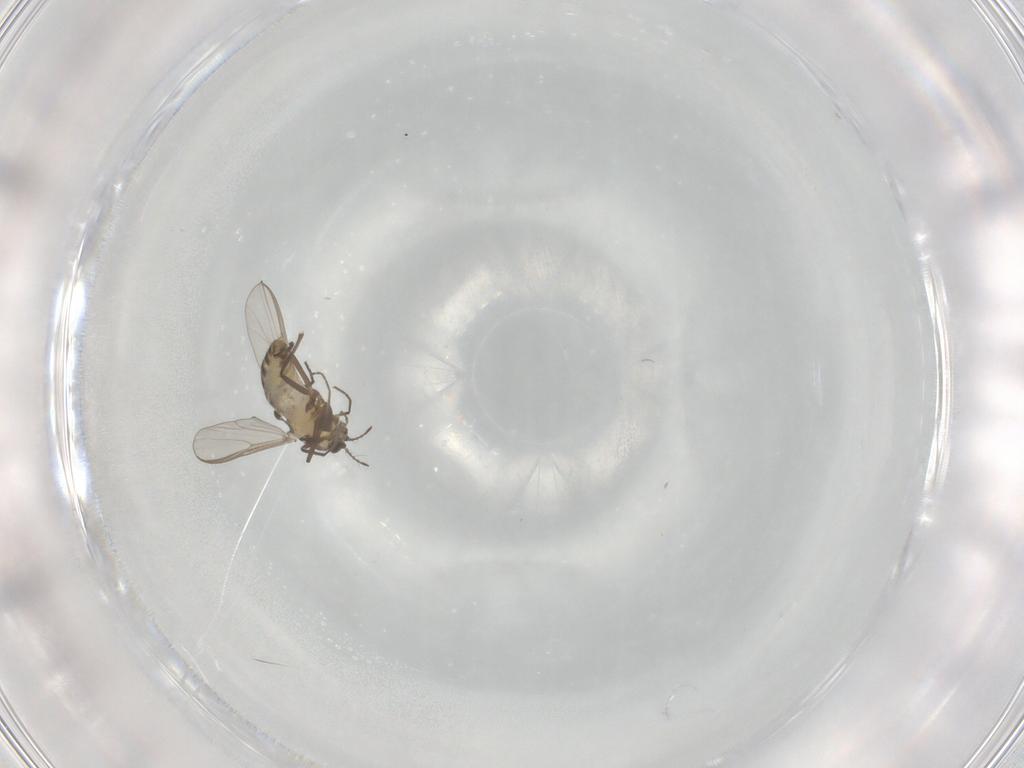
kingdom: Animalia
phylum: Arthropoda
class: Insecta
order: Diptera
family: Chironomidae
